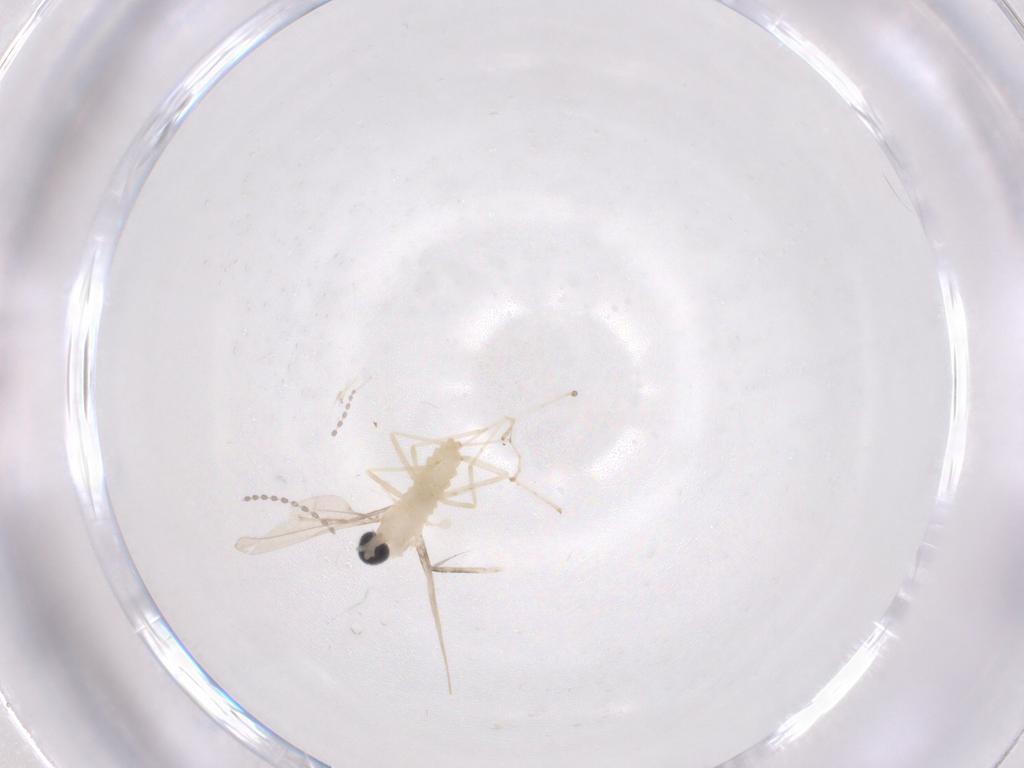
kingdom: Animalia
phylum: Arthropoda
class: Insecta
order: Diptera
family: Cecidomyiidae
